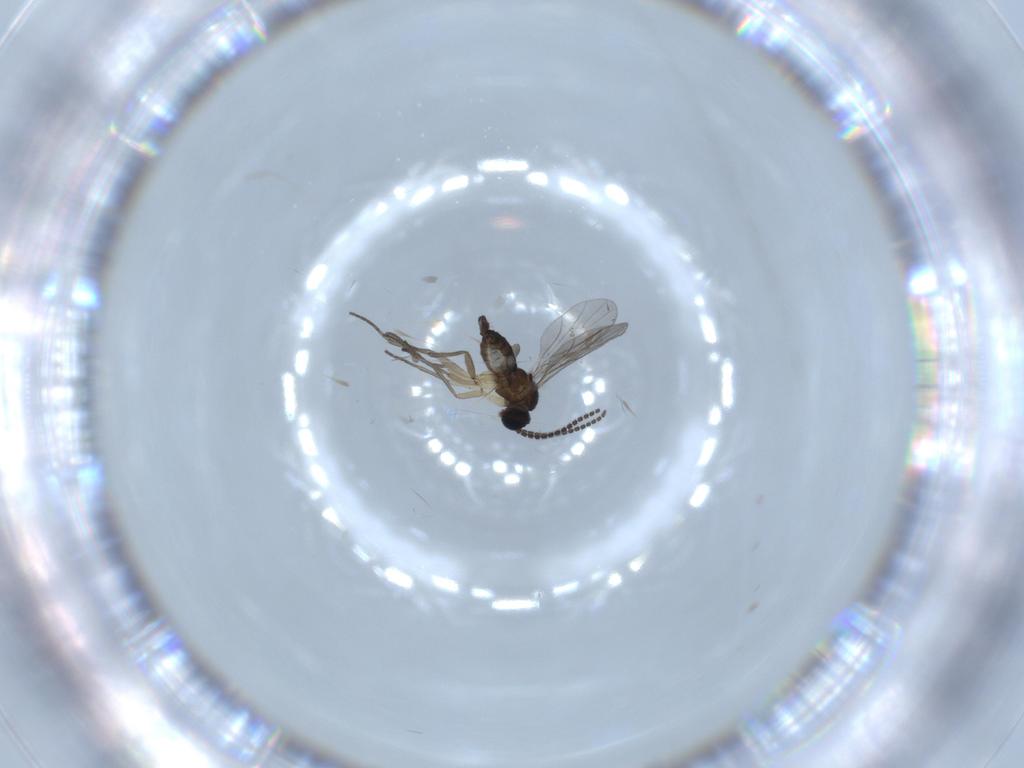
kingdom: Animalia
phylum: Arthropoda
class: Insecta
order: Diptera
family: Sciaridae
